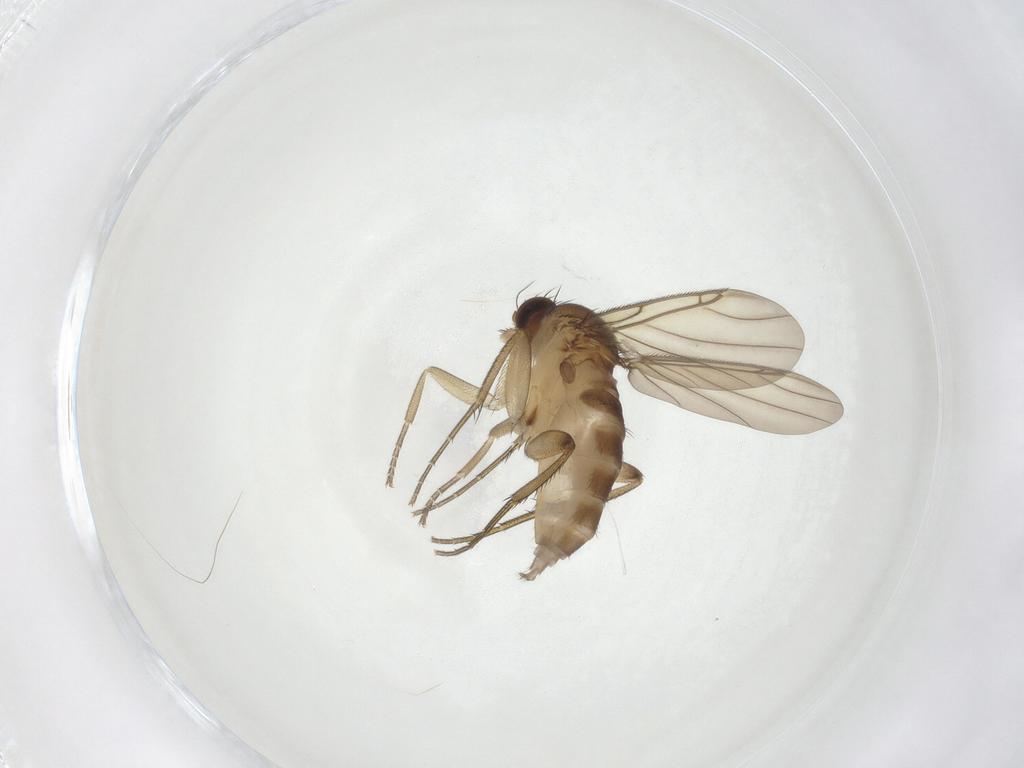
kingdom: Animalia
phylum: Arthropoda
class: Insecta
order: Diptera
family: Phoridae
